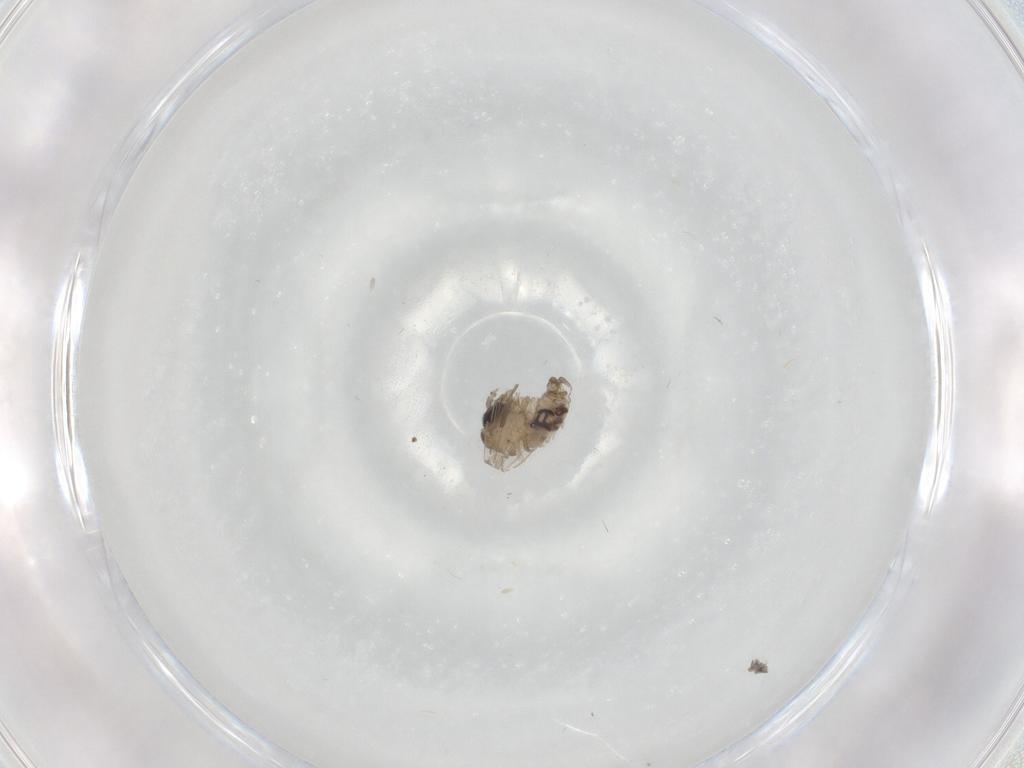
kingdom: Animalia
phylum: Arthropoda
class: Insecta
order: Diptera
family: Psychodidae
